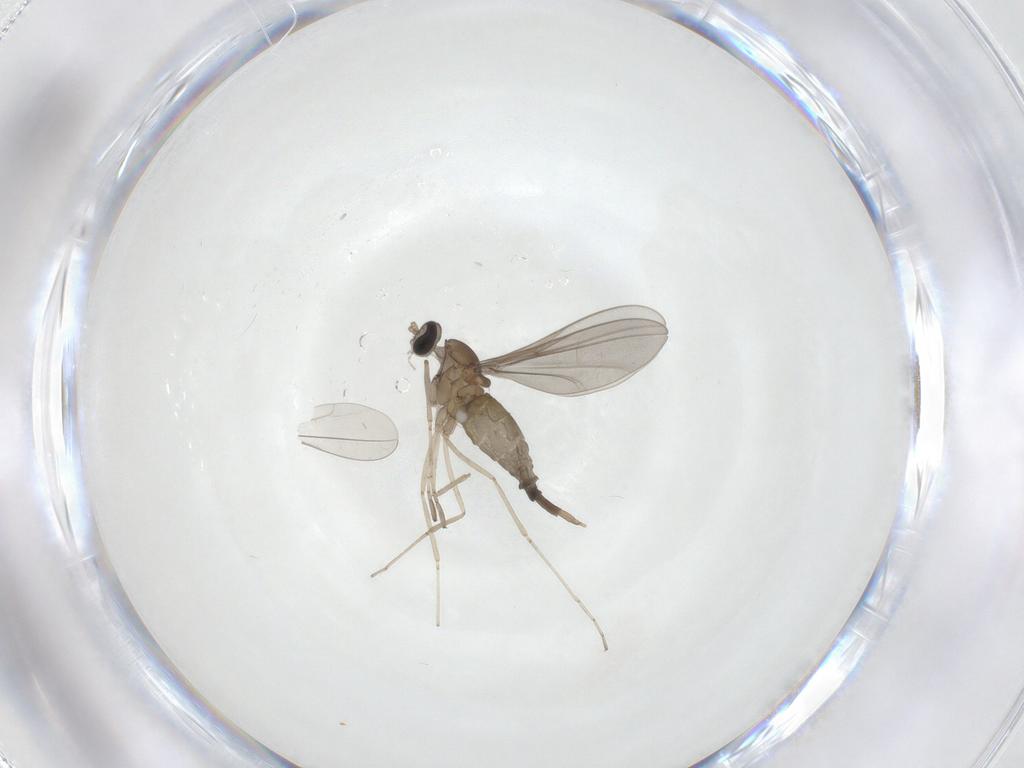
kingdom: Animalia
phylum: Arthropoda
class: Insecta
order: Diptera
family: Cecidomyiidae
